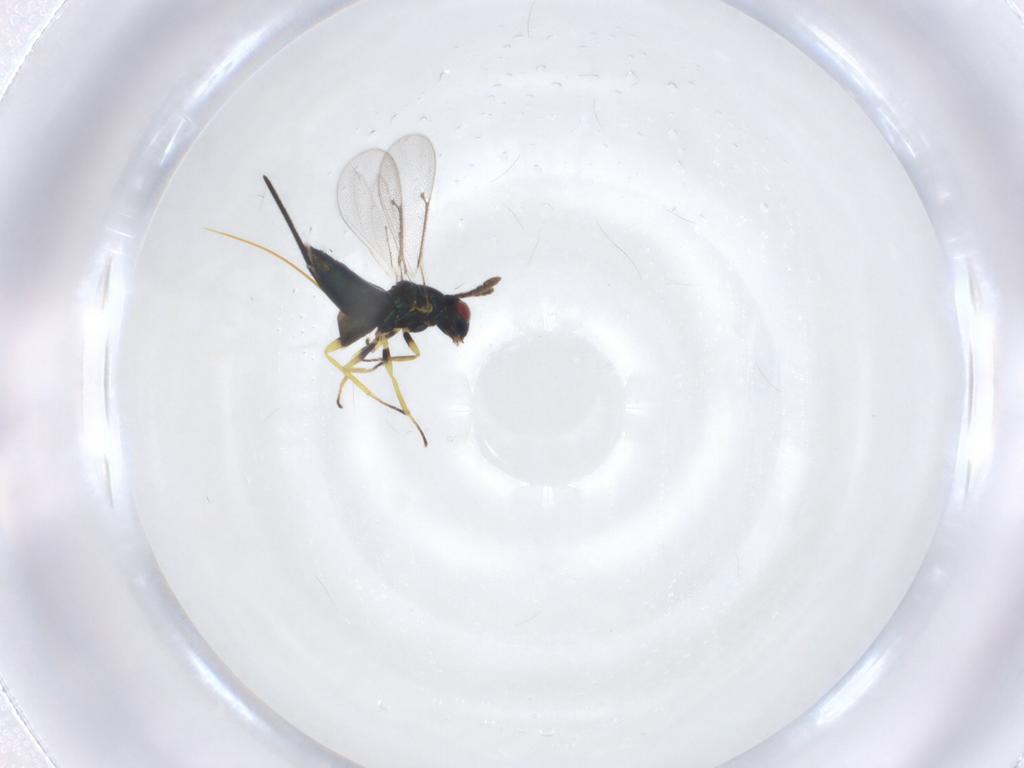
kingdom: Animalia
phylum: Arthropoda
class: Insecta
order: Hymenoptera
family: Eulophidae
